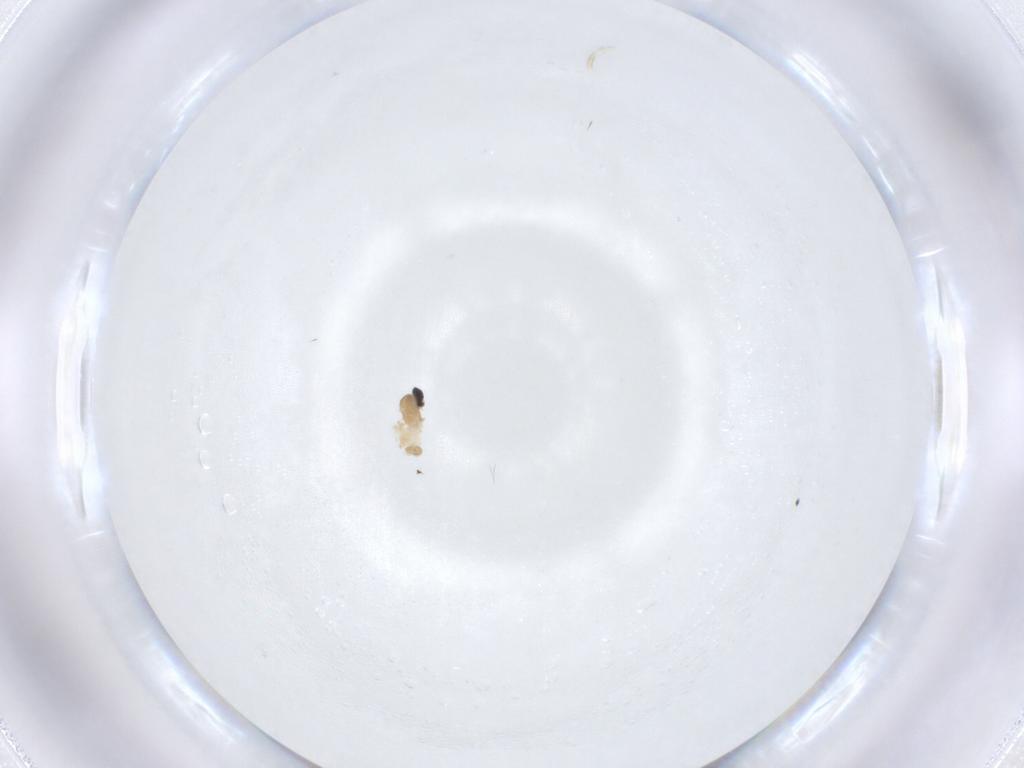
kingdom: Animalia
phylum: Arthropoda
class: Insecta
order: Diptera
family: Cecidomyiidae
